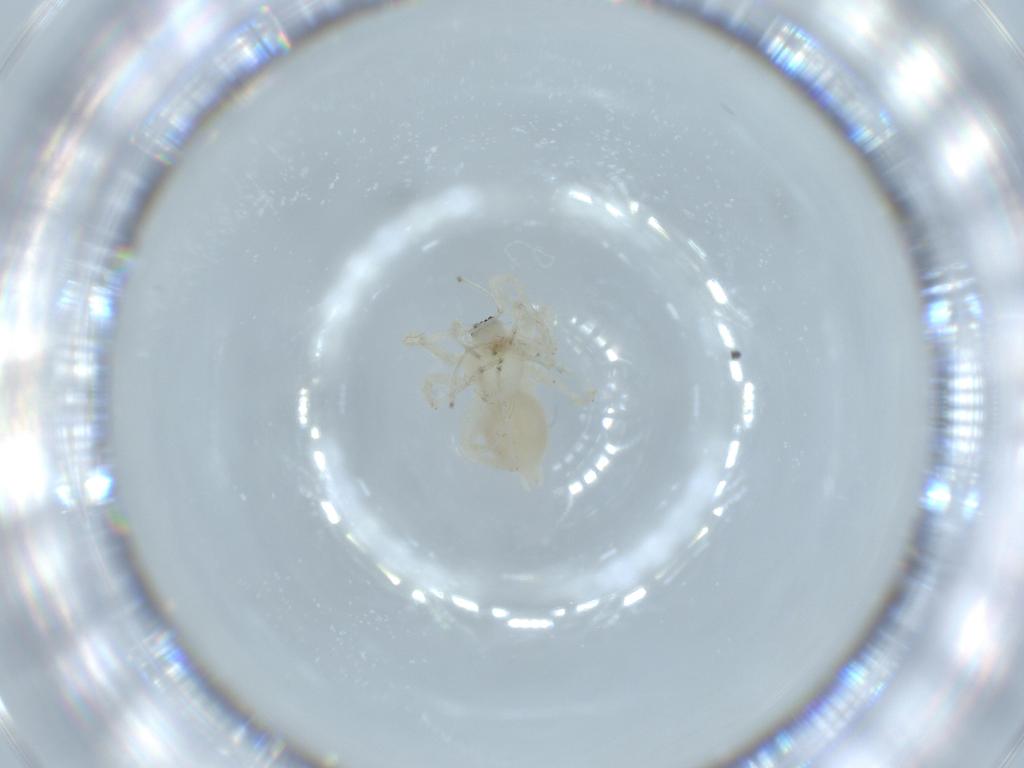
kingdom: Animalia
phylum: Arthropoda
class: Arachnida
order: Araneae
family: Anyphaenidae
